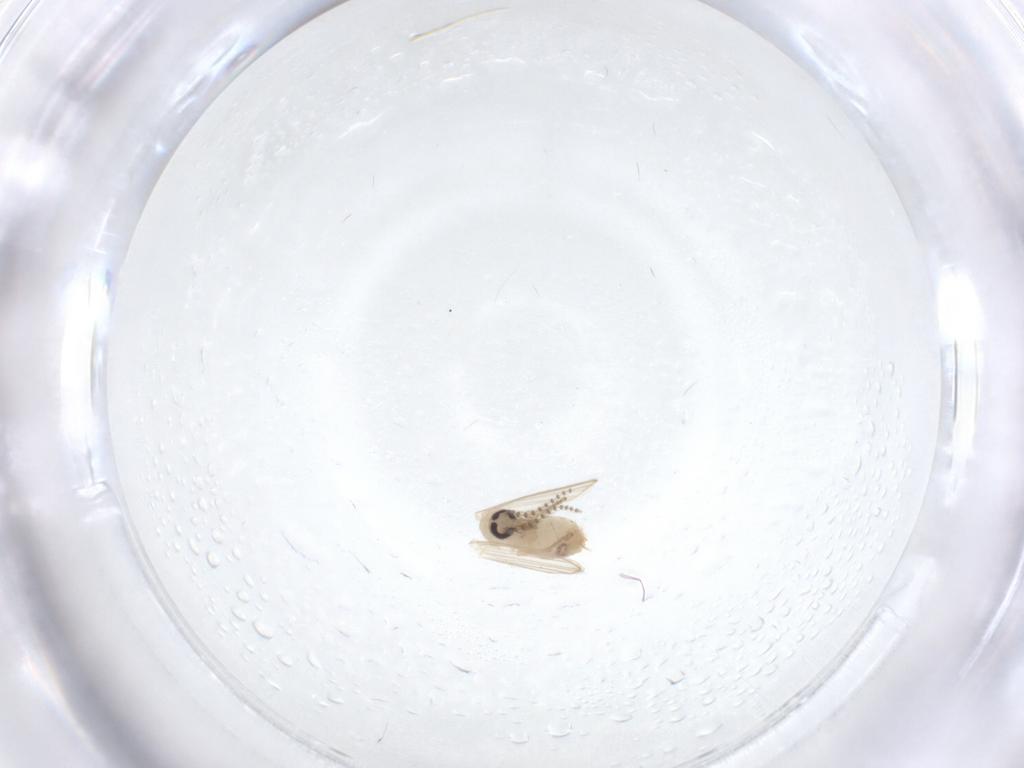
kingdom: Animalia
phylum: Arthropoda
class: Insecta
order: Diptera
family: Psychodidae
